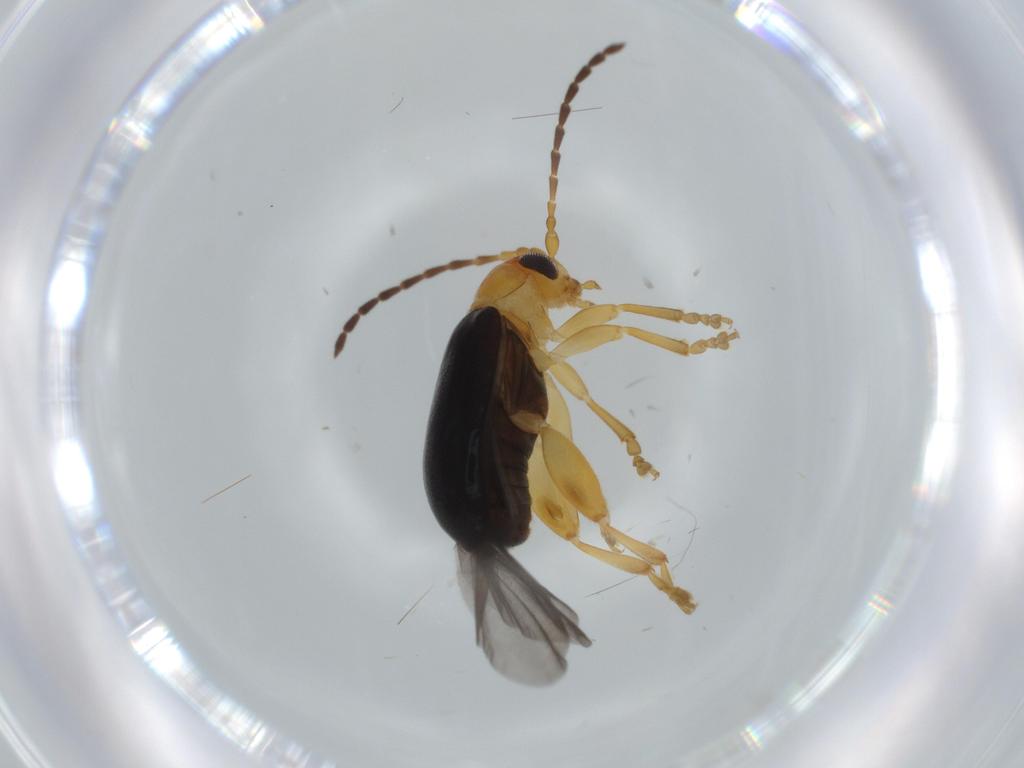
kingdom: Animalia
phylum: Arthropoda
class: Insecta
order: Coleoptera
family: Chrysomelidae
